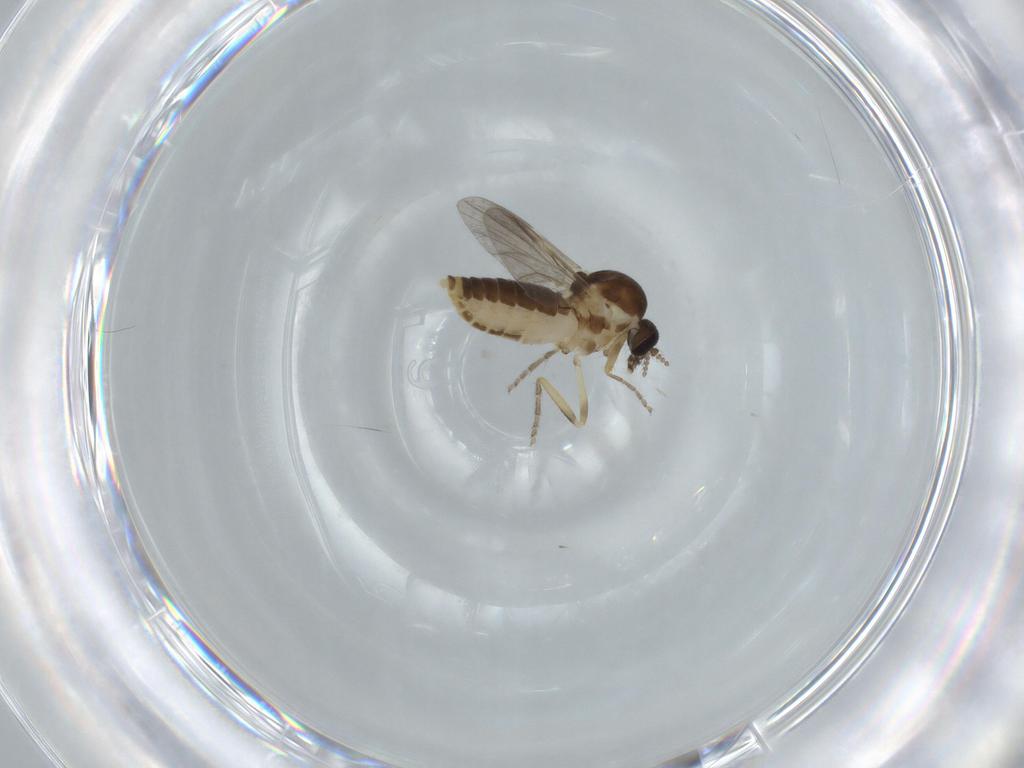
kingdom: Animalia
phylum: Arthropoda
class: Insecta
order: Diptera
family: Ceratopogonidae
